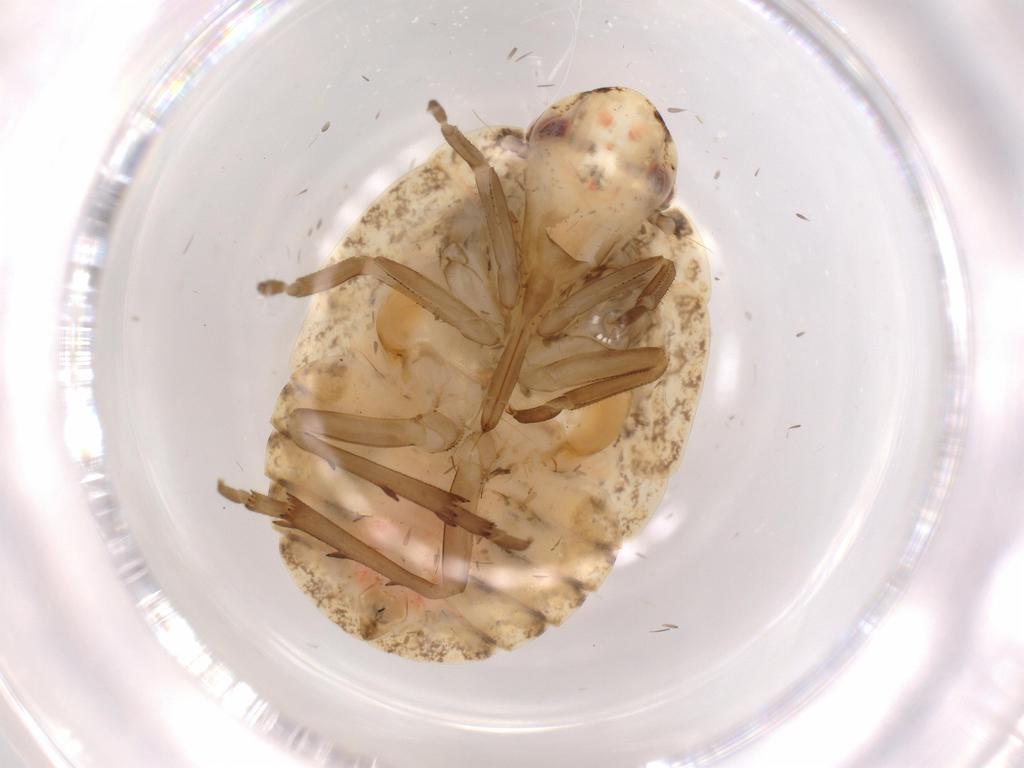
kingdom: Animalia
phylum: Arthropoda
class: Insecta
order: Hemiptera
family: Flatidae
